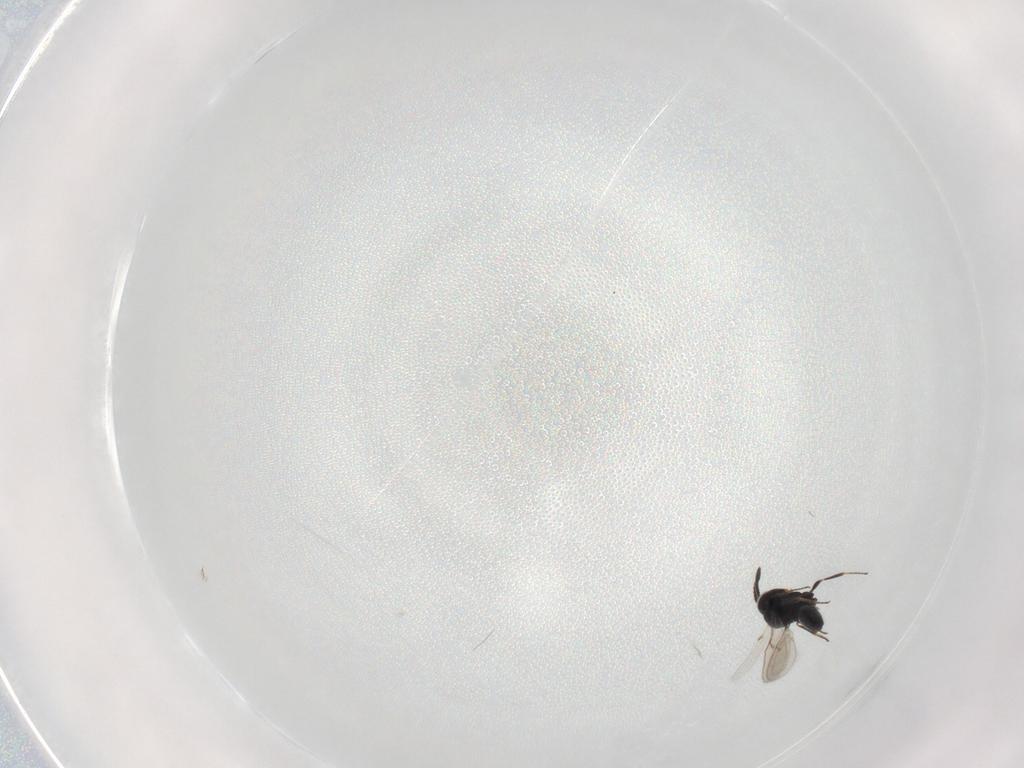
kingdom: Animalia
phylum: Arthropoda
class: Insecta
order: Hymenoptera
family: Scelionidae
